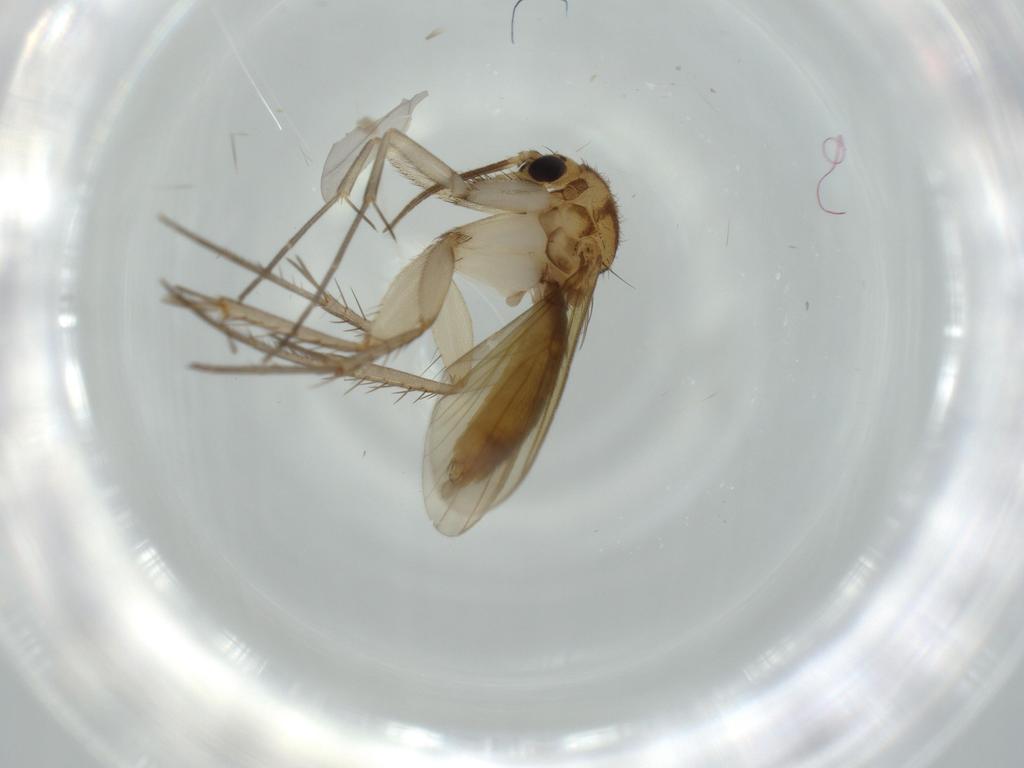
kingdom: Animalia
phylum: Arthropoda
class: Insecta
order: Diptera
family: Mycetophilidae
